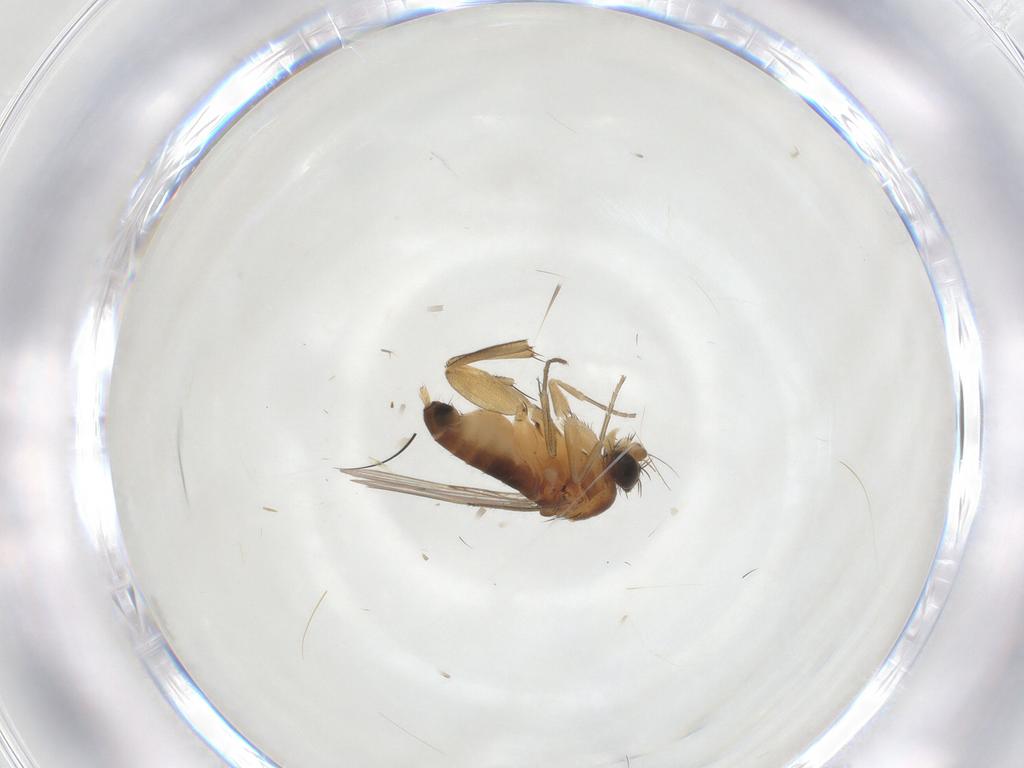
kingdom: Animalia
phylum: Arthropoda
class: Insecta
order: Diptera
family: Phoridae
